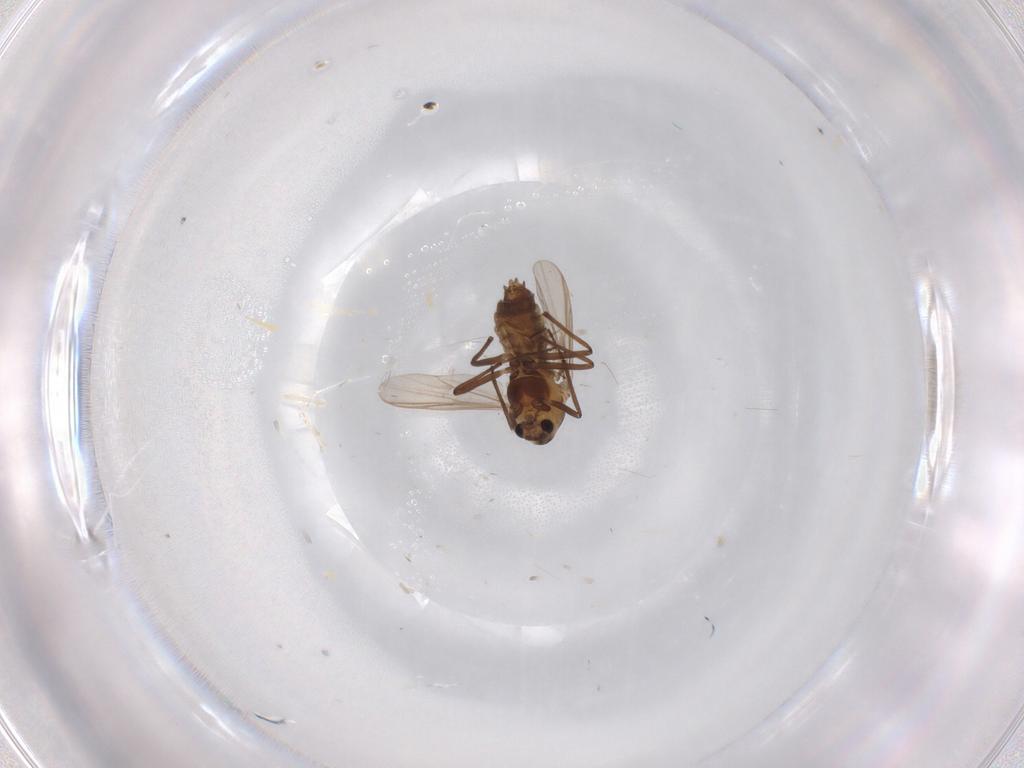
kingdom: Animalia
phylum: Arthropoda
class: Insecta
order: Diptera
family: Chironomidae
